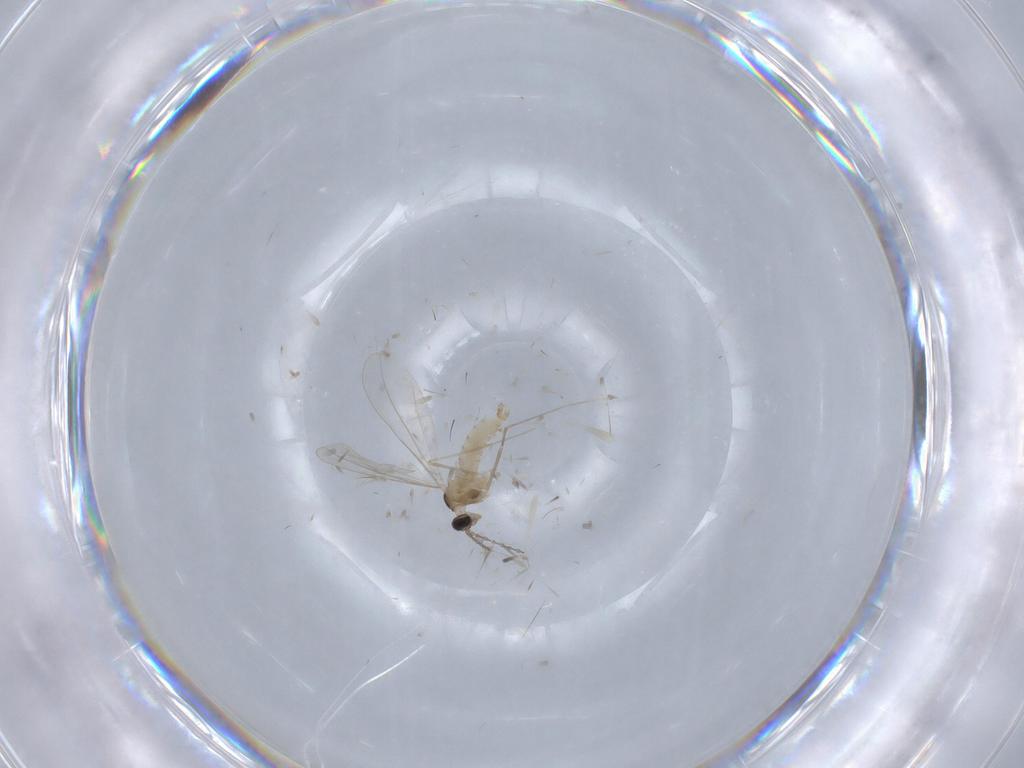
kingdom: Animalia
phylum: Arthropoda
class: Insecta
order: Diptera
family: Cecidomyiidae
